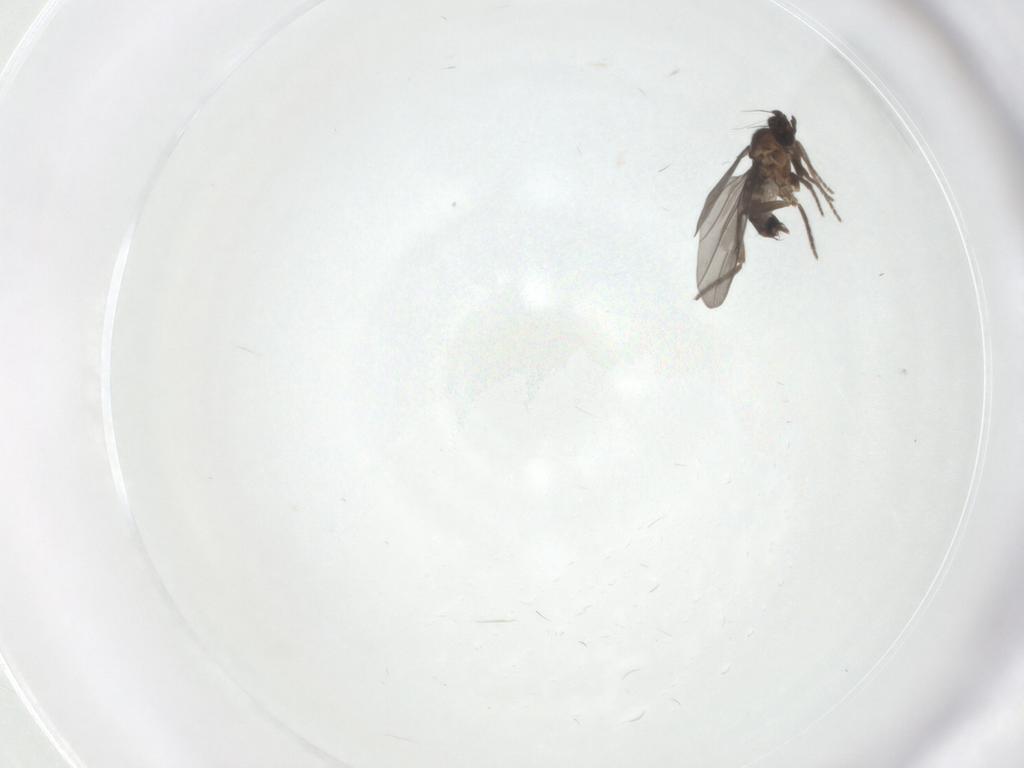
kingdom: Animalia
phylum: Arthropoda
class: Insecta
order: Diptera
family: Phoridae
